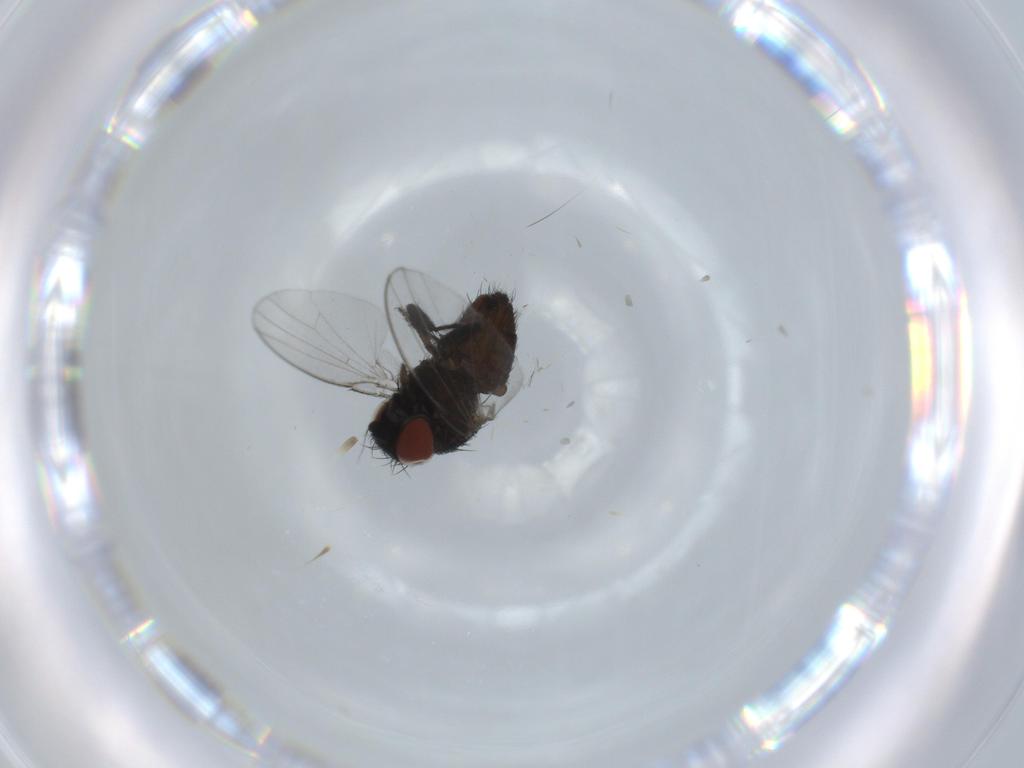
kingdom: Animalia
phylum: Arthropoda
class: Insecta
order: Diptera
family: Milichiidae
